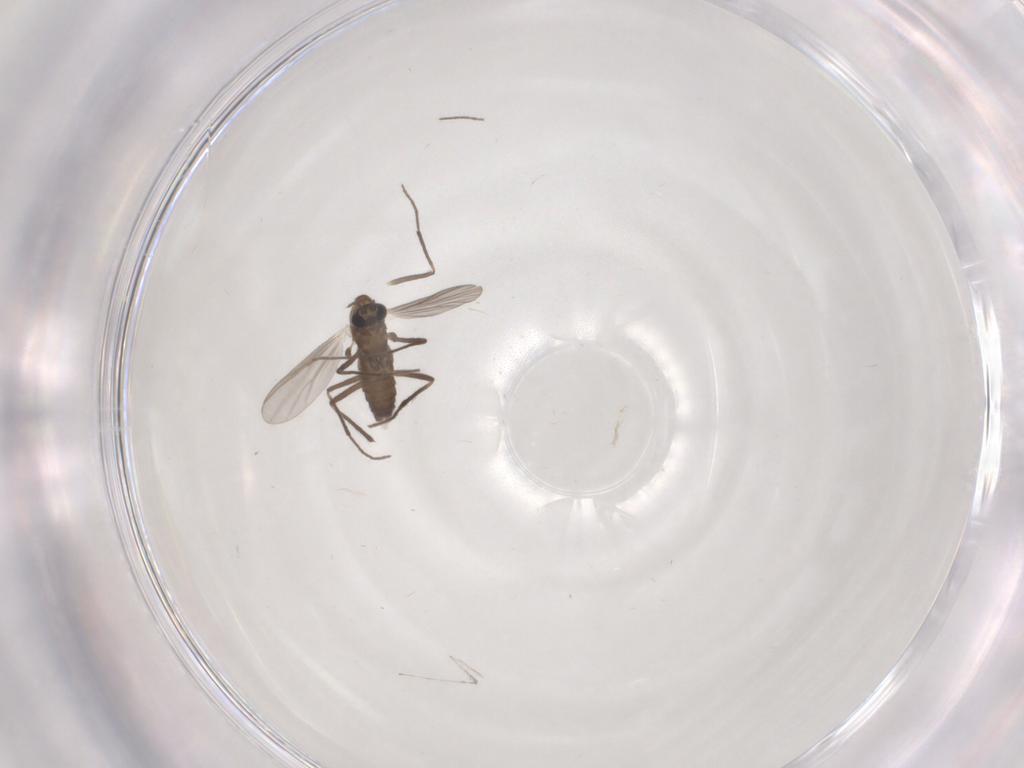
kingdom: Animalia
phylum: Arthropoda
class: Insecta
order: Diptera
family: Chironomidae
